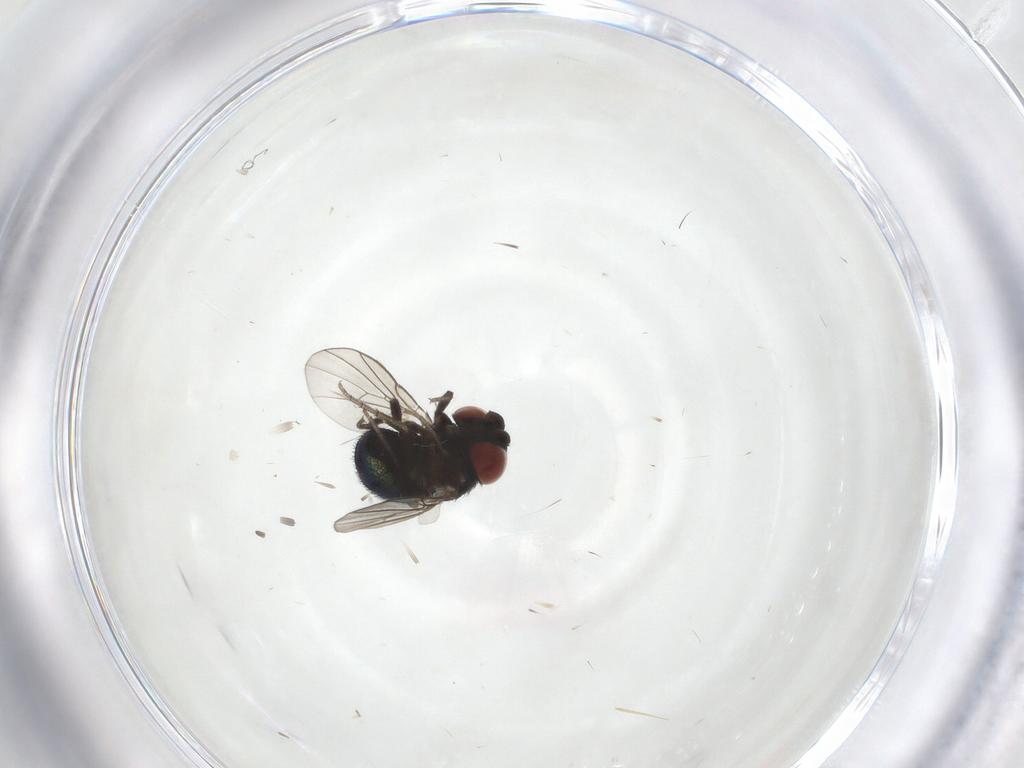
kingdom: Animalia
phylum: Arthropoda
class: Insecta
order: Diptera
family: Cryptochetidae
